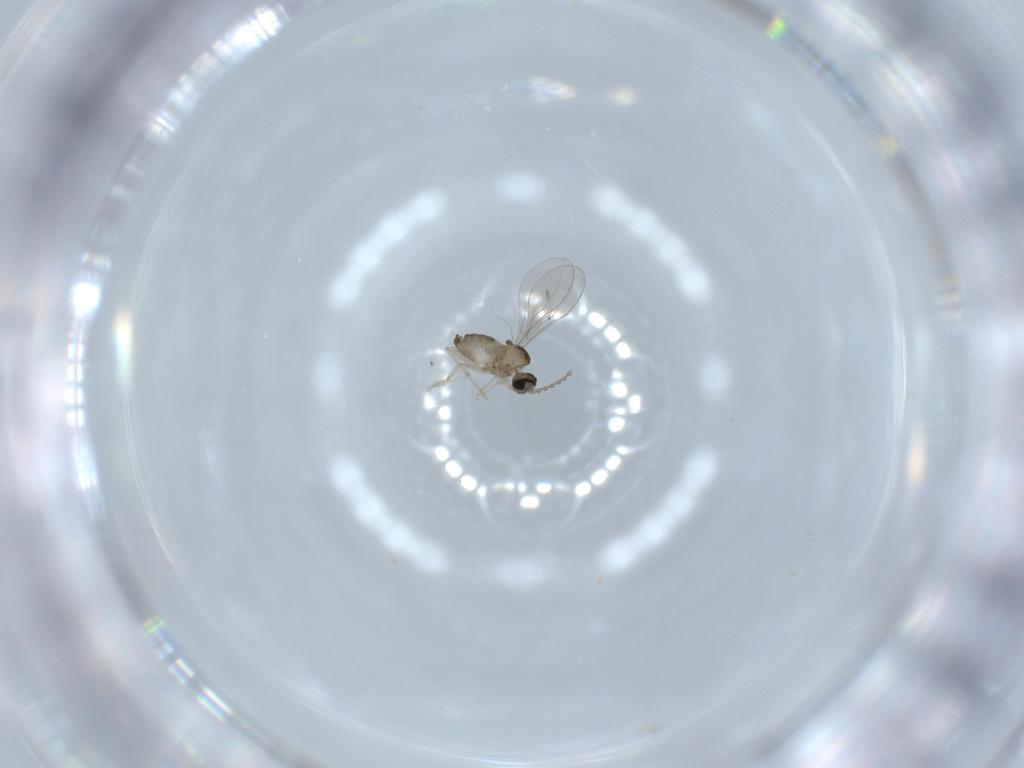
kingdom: Animalia
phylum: Arthropoda
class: Insecta
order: Diptera
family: Cecidomyiidae
